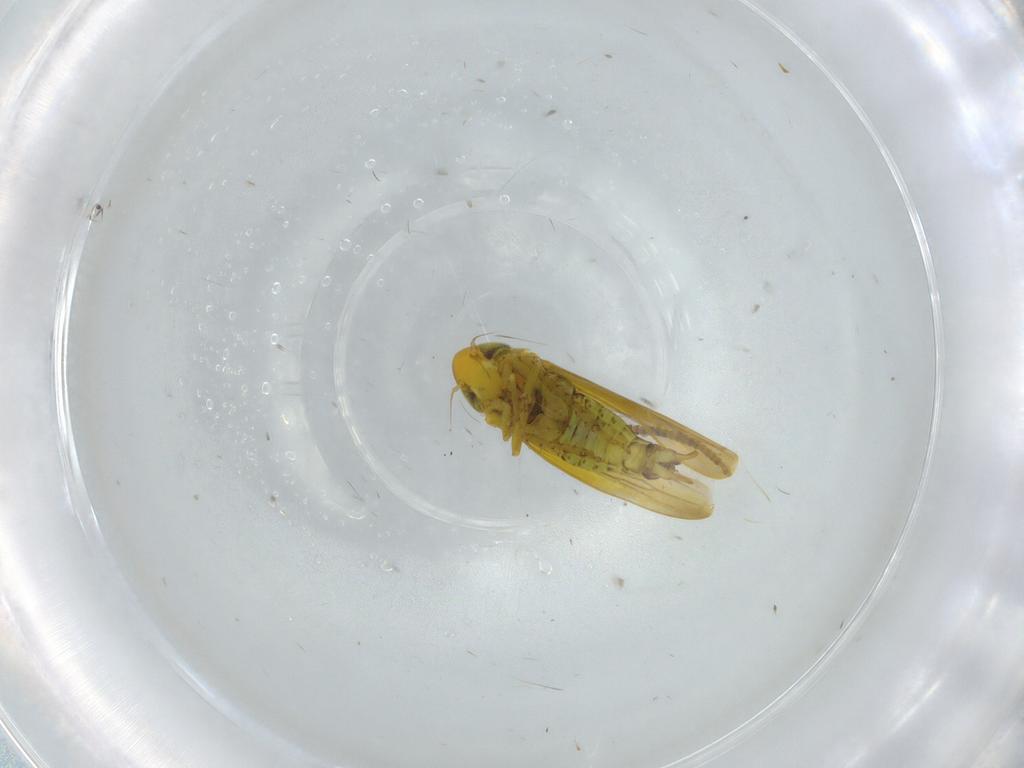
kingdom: Animalia
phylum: Arthropoda
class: Insecta
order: Hemiptera
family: Cicadellidae
